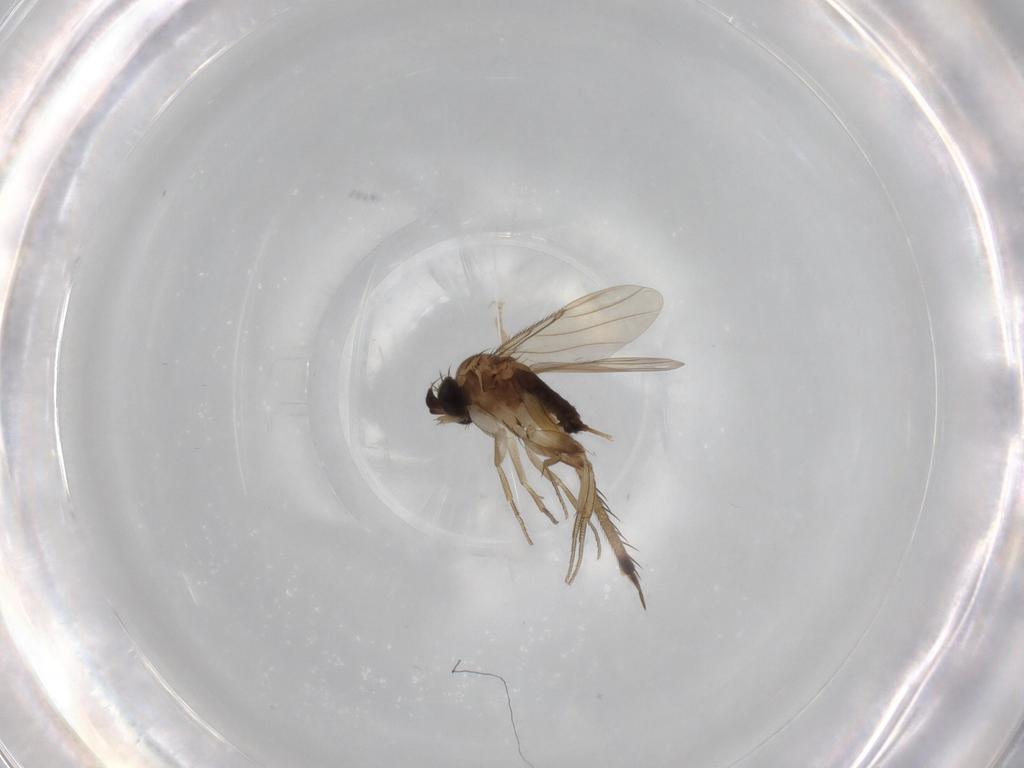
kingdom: Animalia
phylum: Arthropoda
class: Insecta
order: Diptera
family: Phoridae
